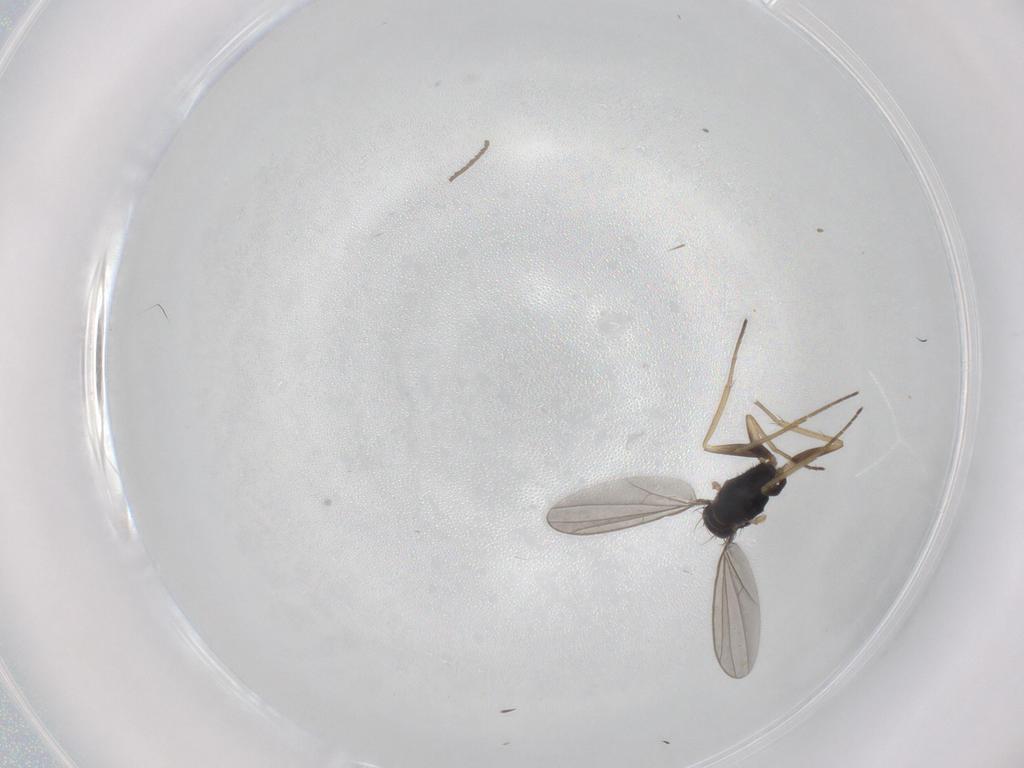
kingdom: Animalia
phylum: Arthropoda
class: Insecta
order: Diptera
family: Dolichopodidae
